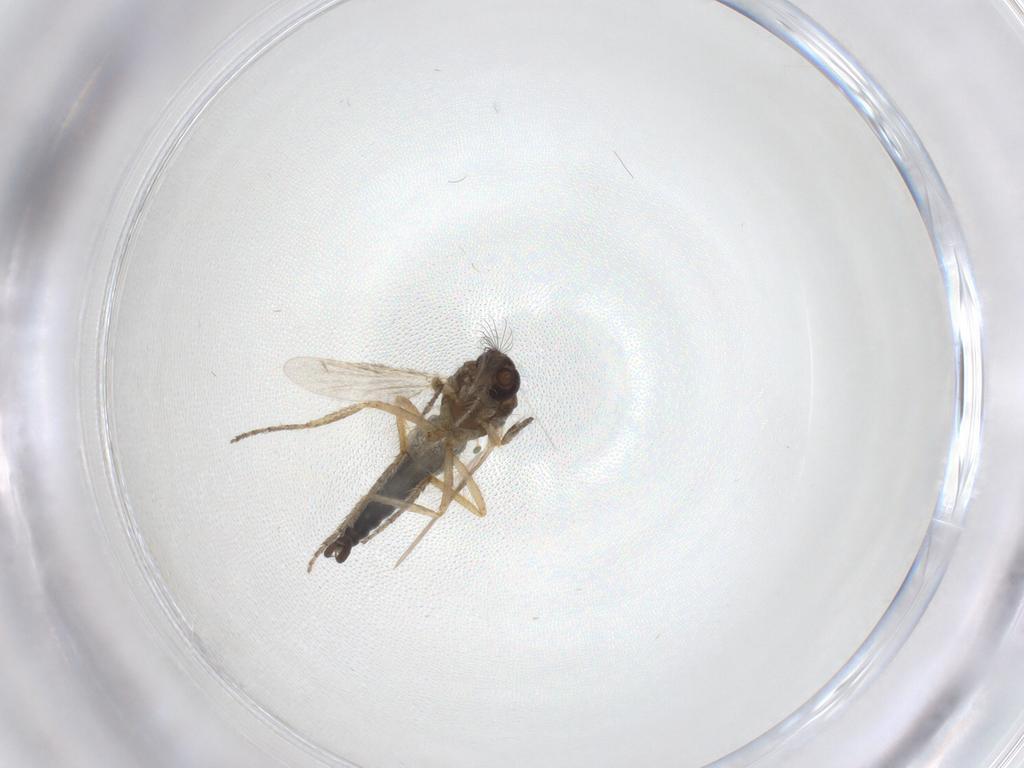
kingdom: Animalia
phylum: Arthropoda
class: Insecta
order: Diptera
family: Ceratopogonidae
